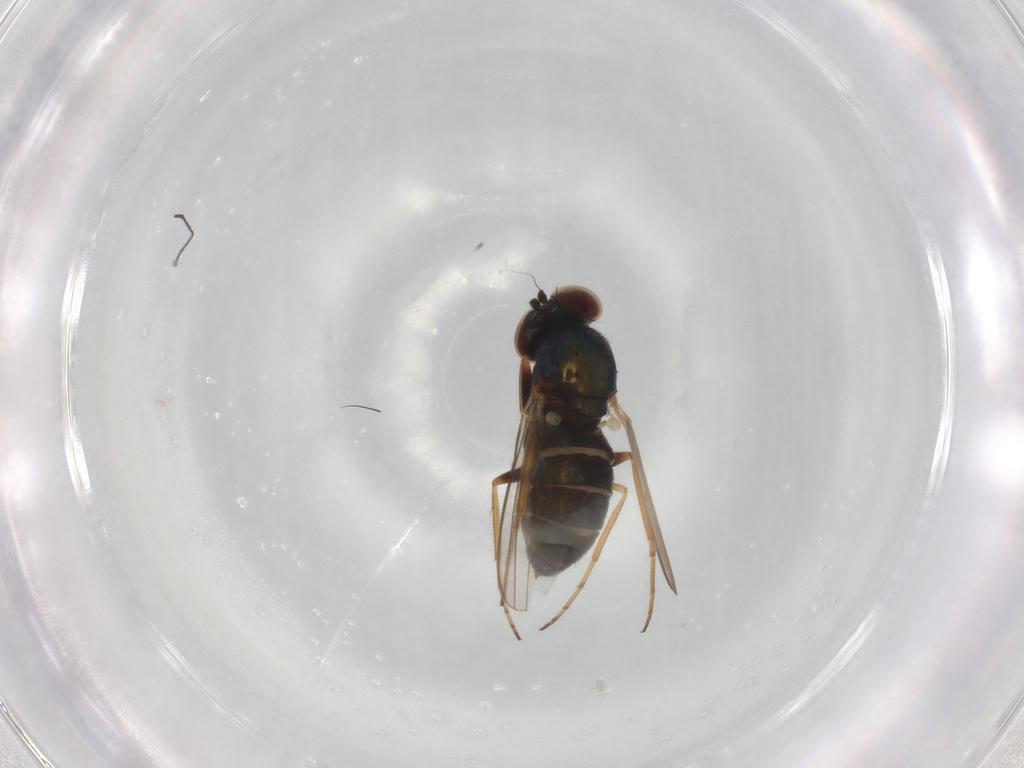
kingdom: Animalia
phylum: Arthropoda
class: Insecta
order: Diptera
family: Dolichopodidae
